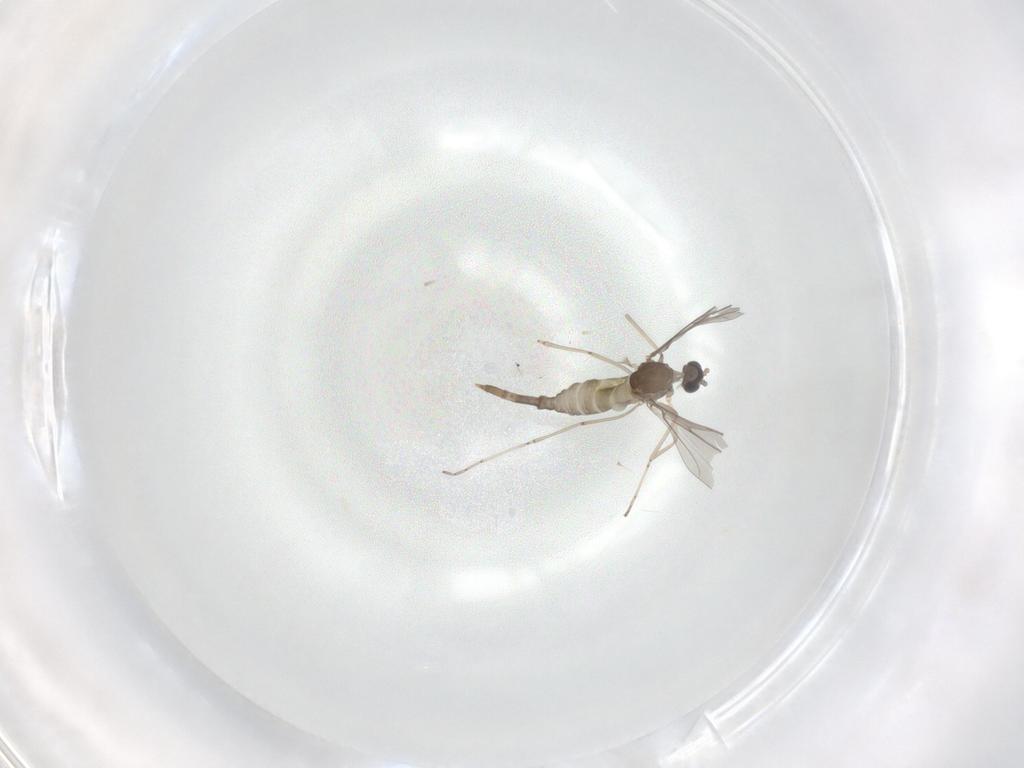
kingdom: Animalia
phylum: Arthropoda
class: Insecta
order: Diptera
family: Cecidomyiidae
